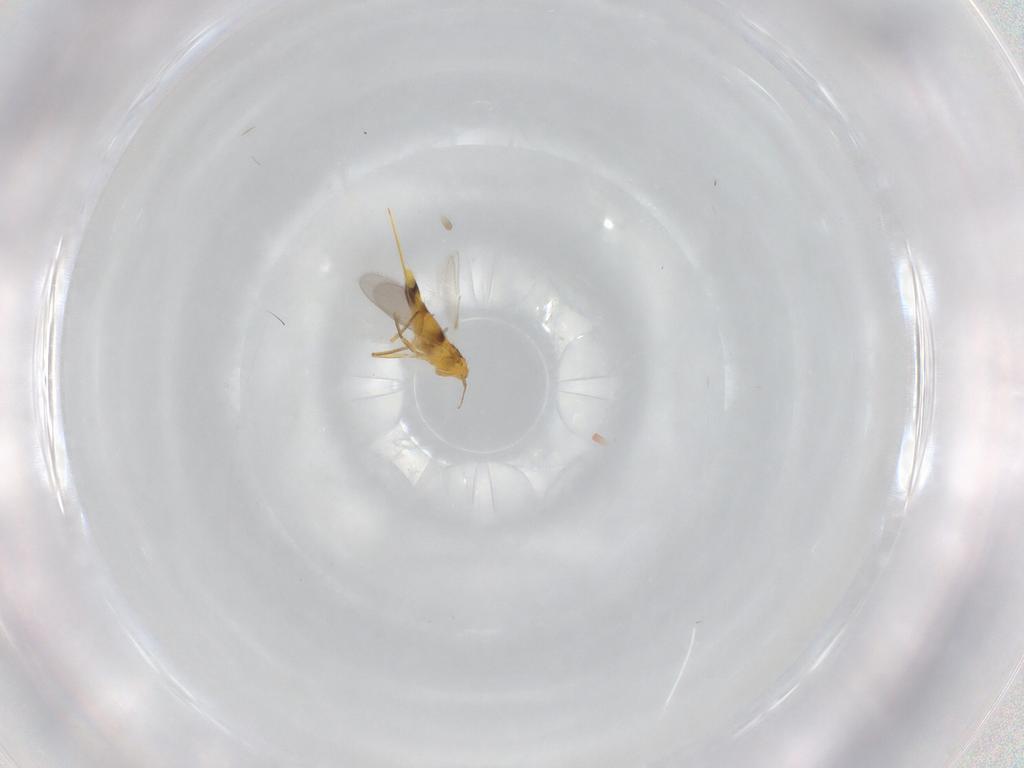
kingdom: Animalia
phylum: Arthropoda
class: Insecta
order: Hymenoptera
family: Aphelinidae
